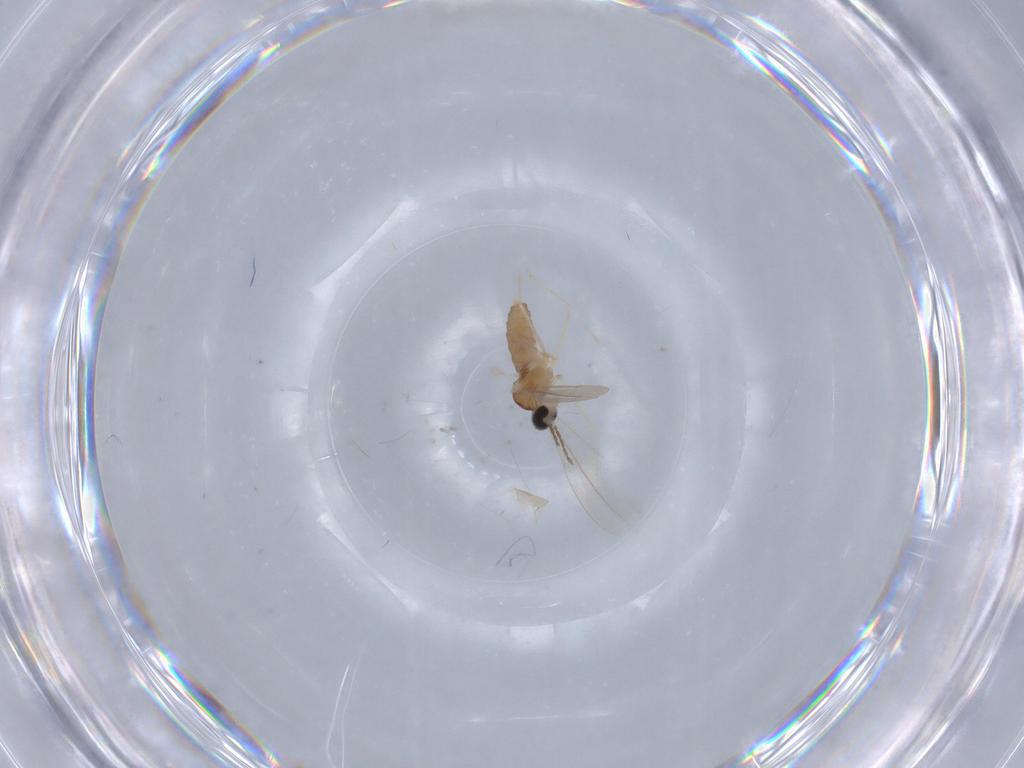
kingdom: Animalia
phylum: Arthropoda
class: Insecta
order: Diptera
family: Cecidomyiidae
